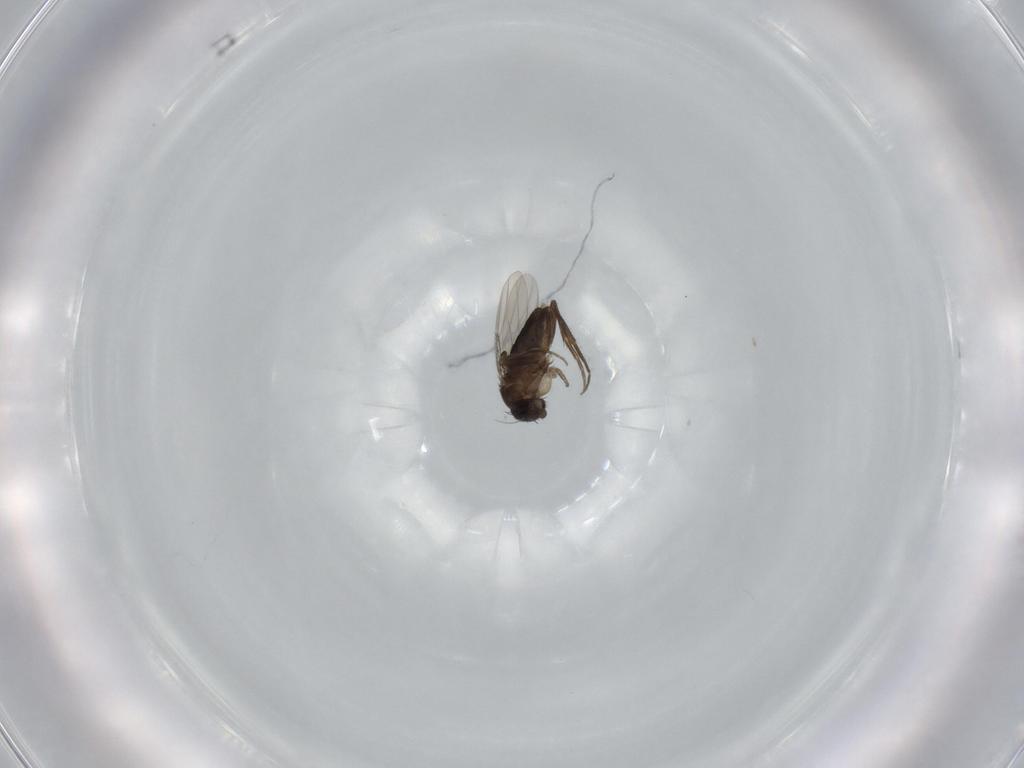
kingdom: Animalia
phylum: Arthropoda
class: Insecta
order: Diptera
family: Phoridae
